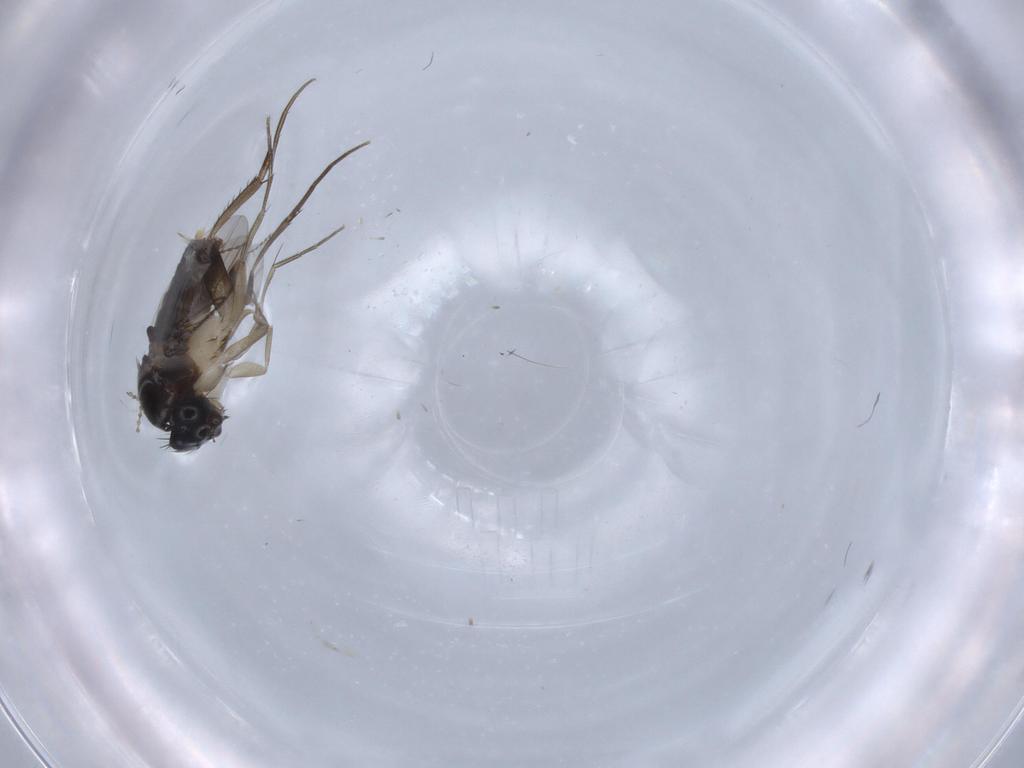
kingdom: Animalia
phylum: Arthropoda
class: Insecta
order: Diptera
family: Phoridae
